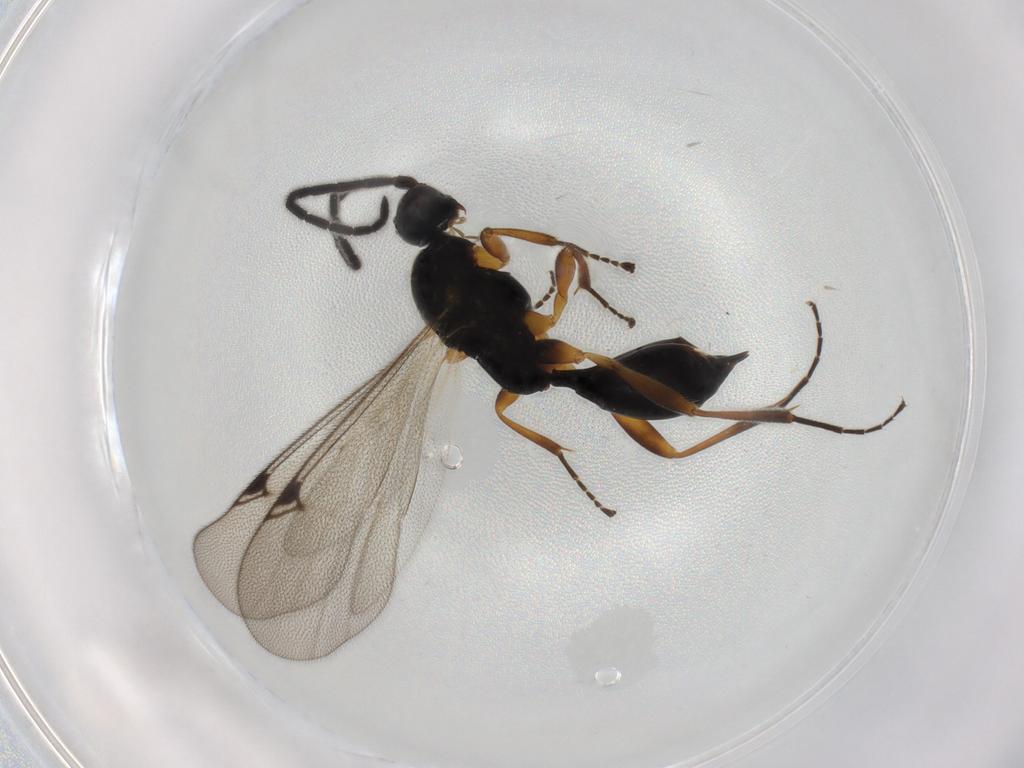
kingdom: Animalia
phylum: Arthropoda
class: Insecta
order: Hymenoptera
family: Proctotrupidae
